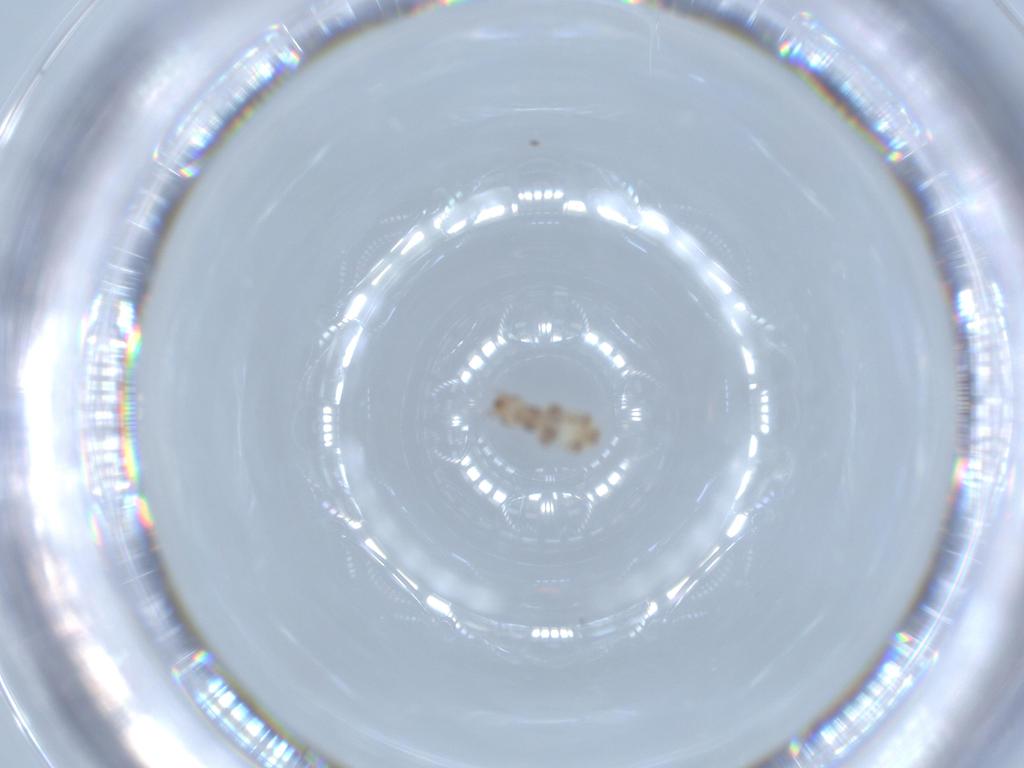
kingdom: Animalia
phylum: Arthropoda
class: Insecta
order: Psocodea
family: Liposcelididae
